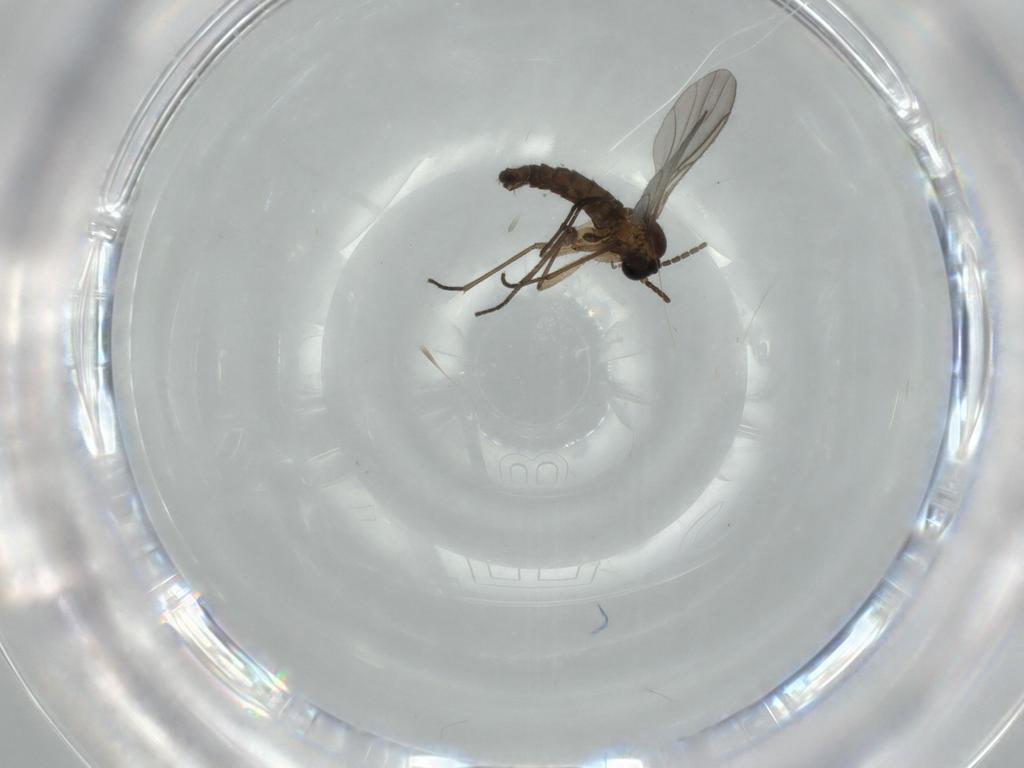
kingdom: Animalia
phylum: Arthropoda
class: Insecta
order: Diptera
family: Sciaridae
